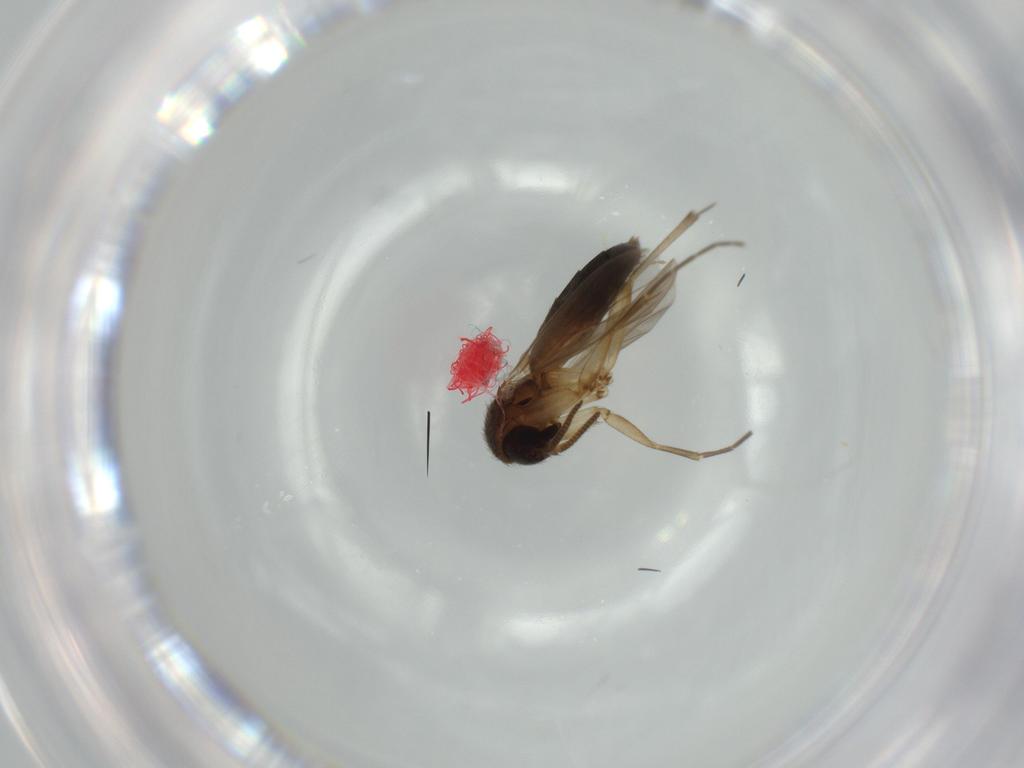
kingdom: Animalia
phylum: Arthropoda
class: Insecta
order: Diptera
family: Mycetophilidae
